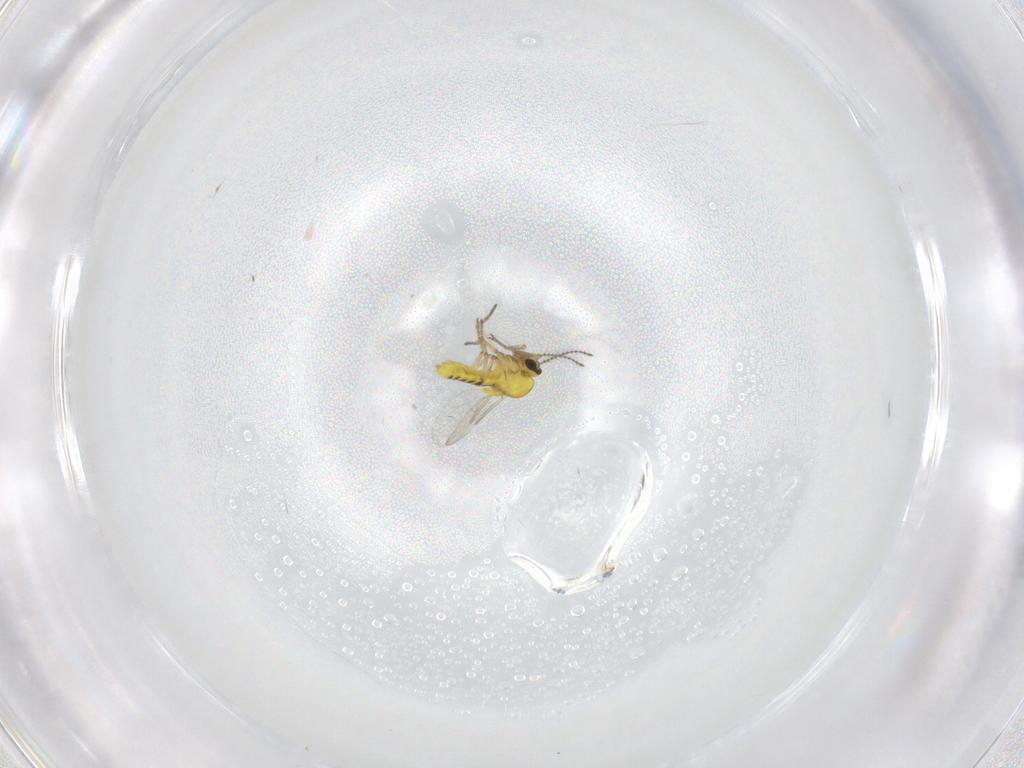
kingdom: Animalia
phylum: Arthropoda
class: Insecta
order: Diptera
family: Ceratopogonidae
